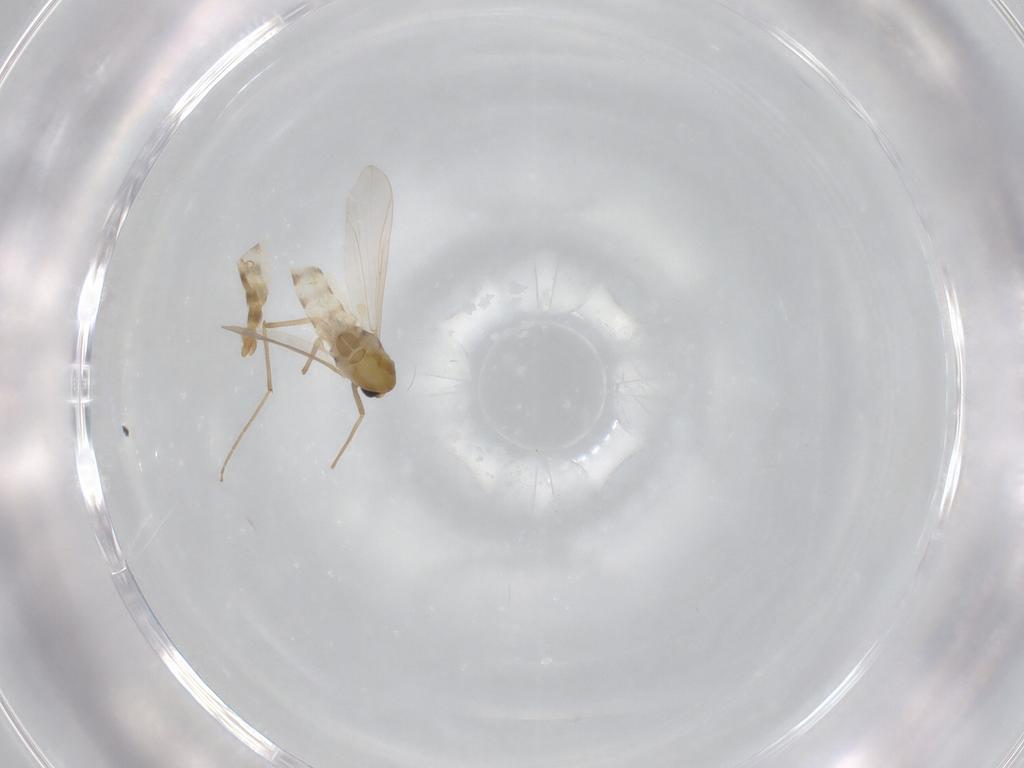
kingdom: Animalia
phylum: Arthropoda
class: Insecta
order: Diptera
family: Chironomidae
